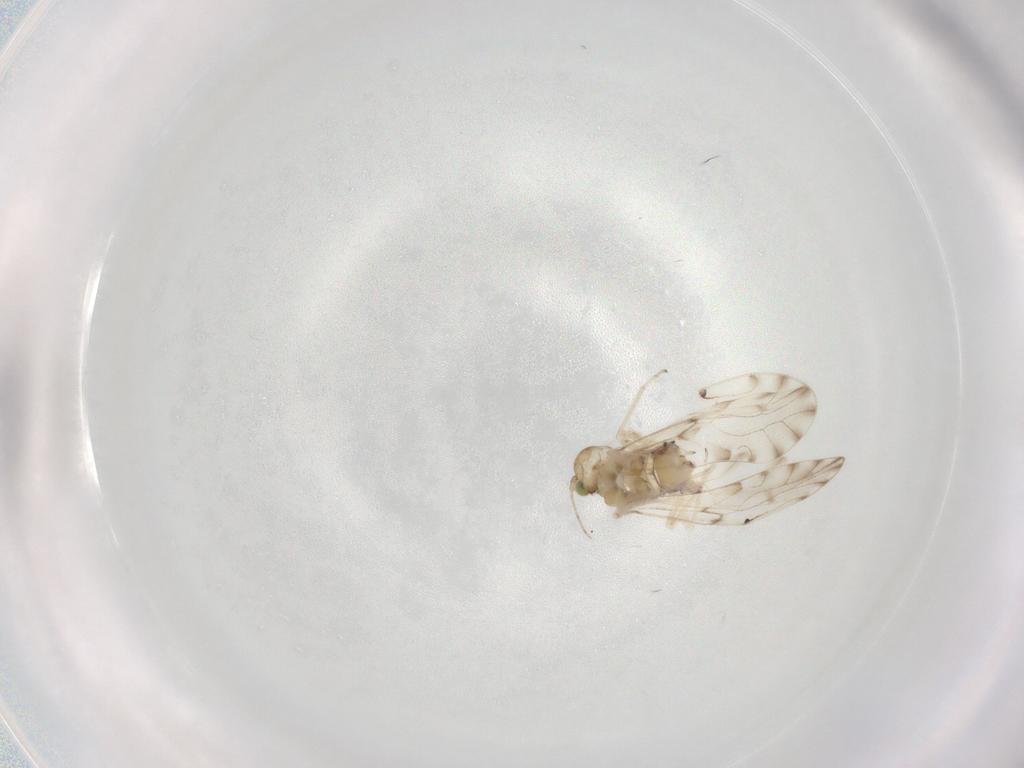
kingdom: Animalia
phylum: Arthropoda
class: Insecta
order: Psocodea
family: Ectopsocidae
